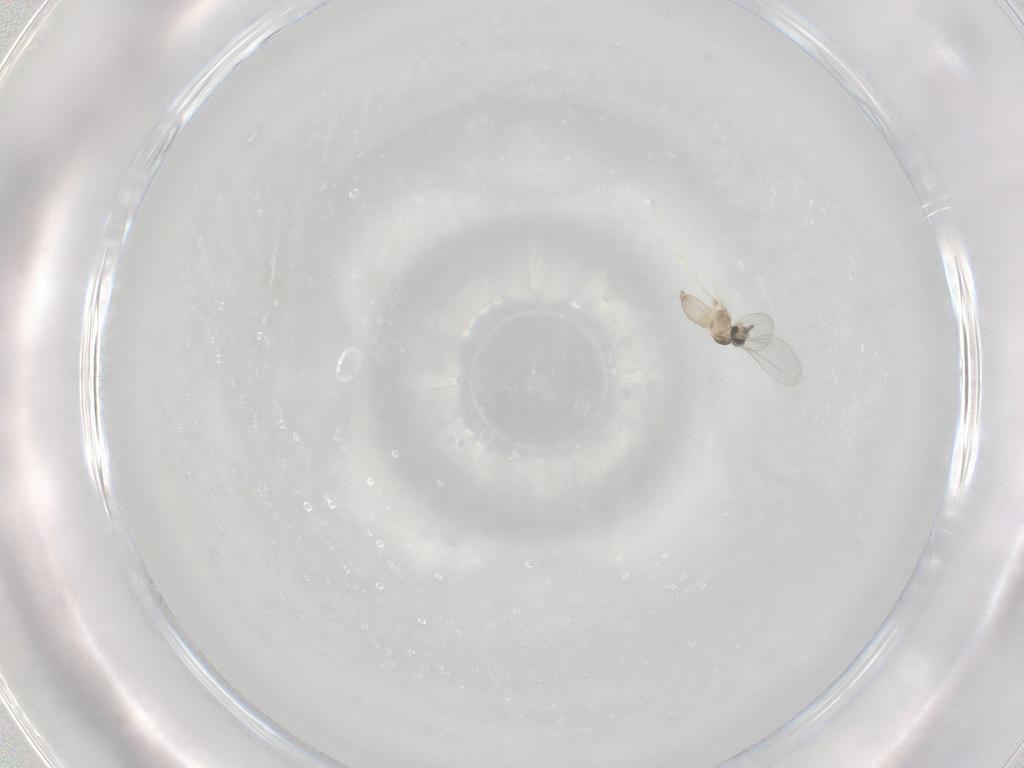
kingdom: Animalia
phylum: Arthropoda
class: Insecta
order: Diptera
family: Cecidomyiidae
